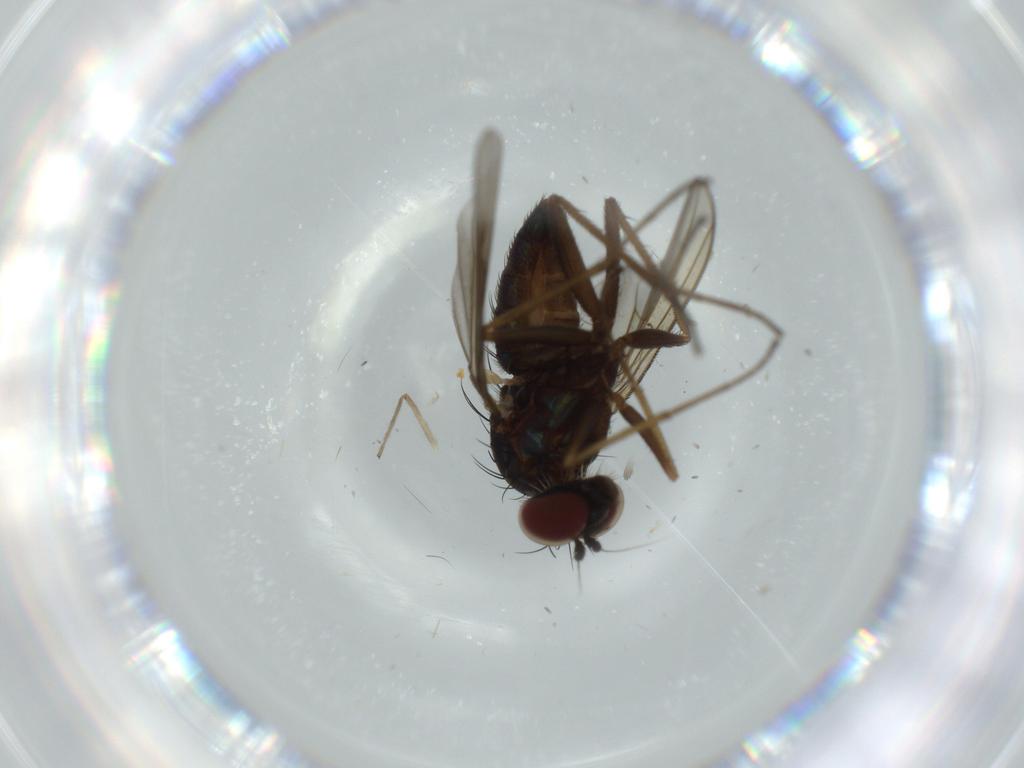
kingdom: Animalia
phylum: Arthropoda
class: Insecta
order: Diptera
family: Dolichopodidae
